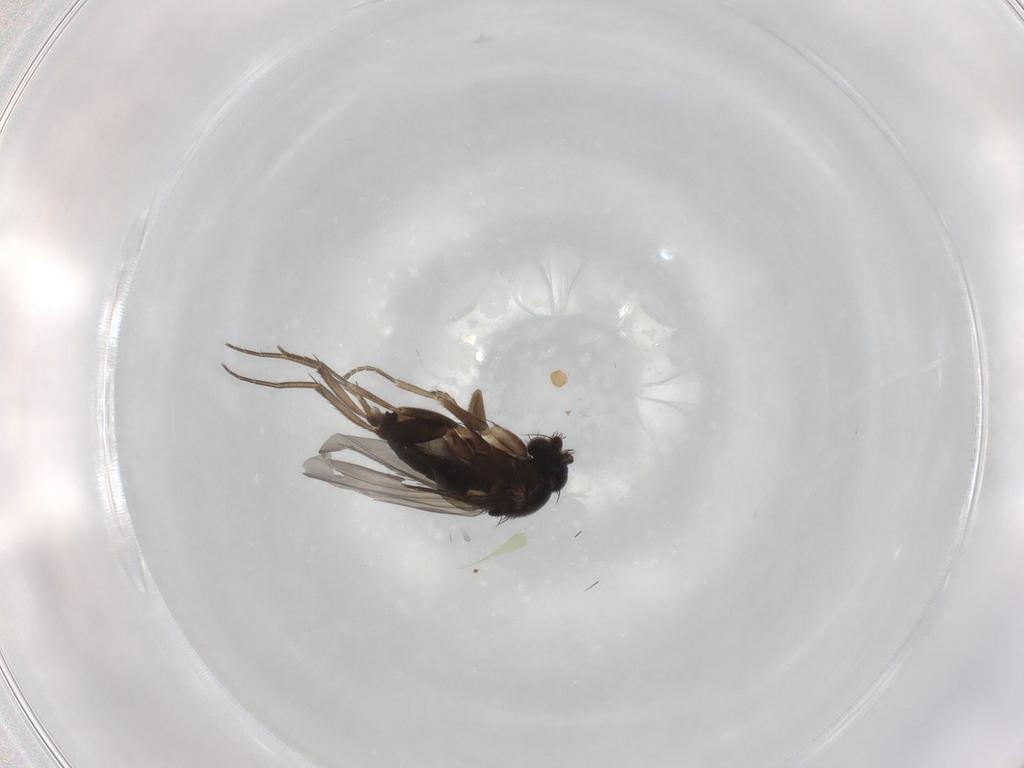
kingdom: Animalia
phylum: Arthropoda
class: Insecta
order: Diptera
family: Phoridae
